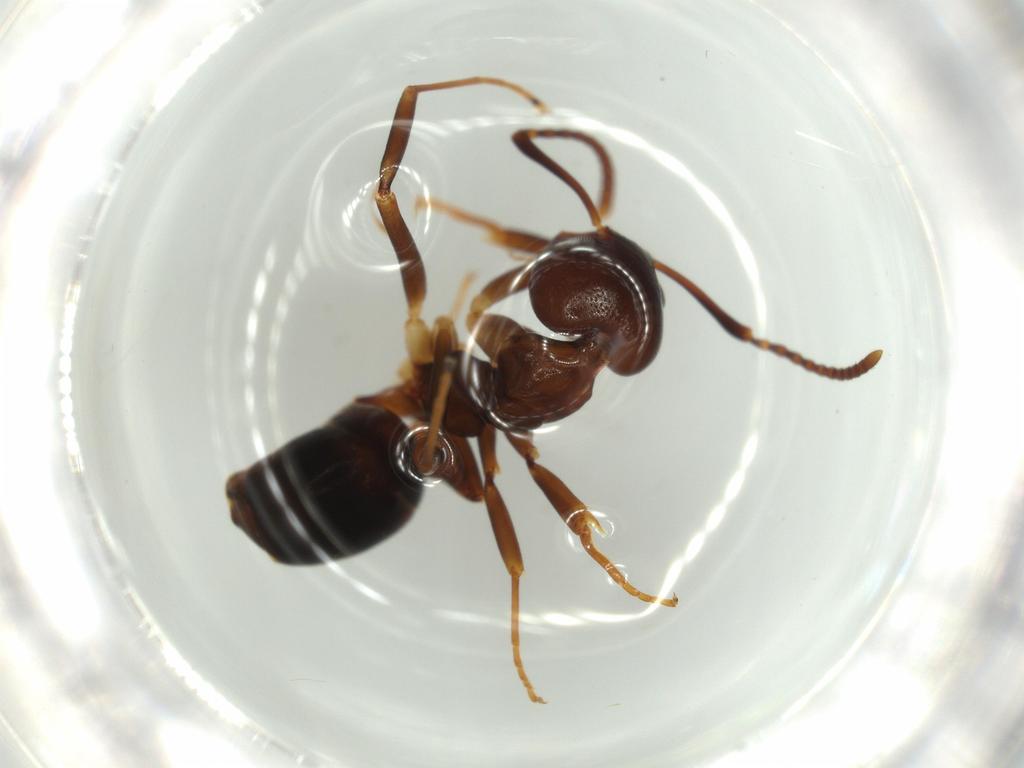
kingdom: Animalia
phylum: Arthropoda
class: Insecta
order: Hymenoptera
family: Formicidae
